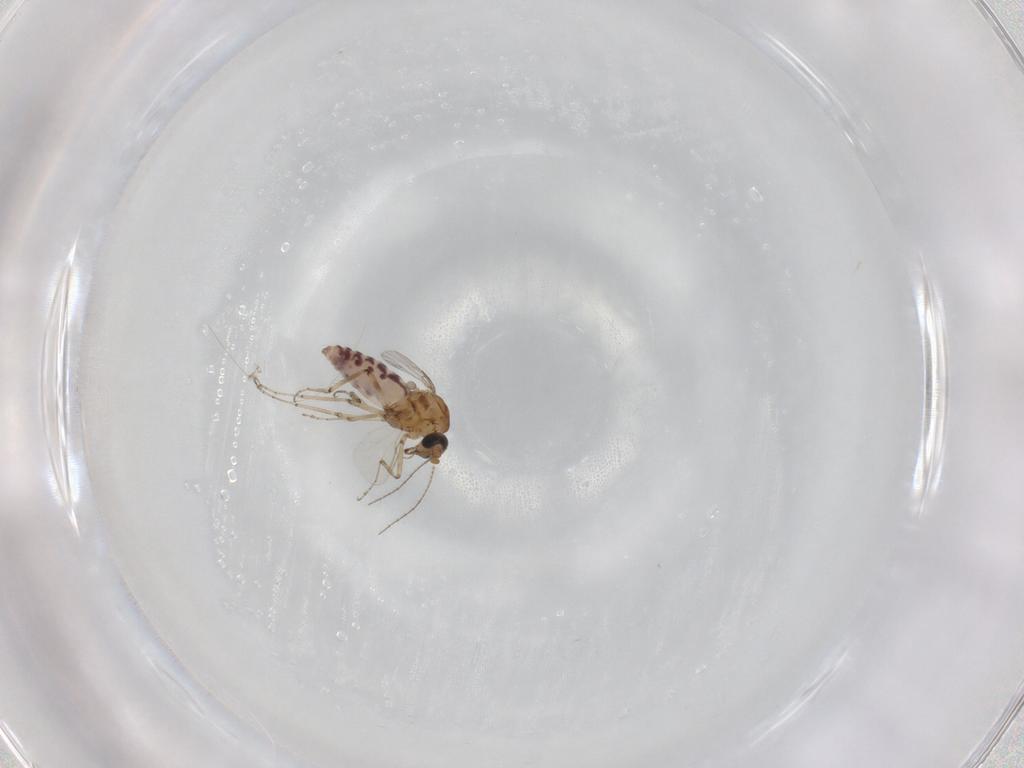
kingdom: Animalia
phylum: Arthropoda
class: Insecta
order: Diptera
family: Ceratopogonidae
